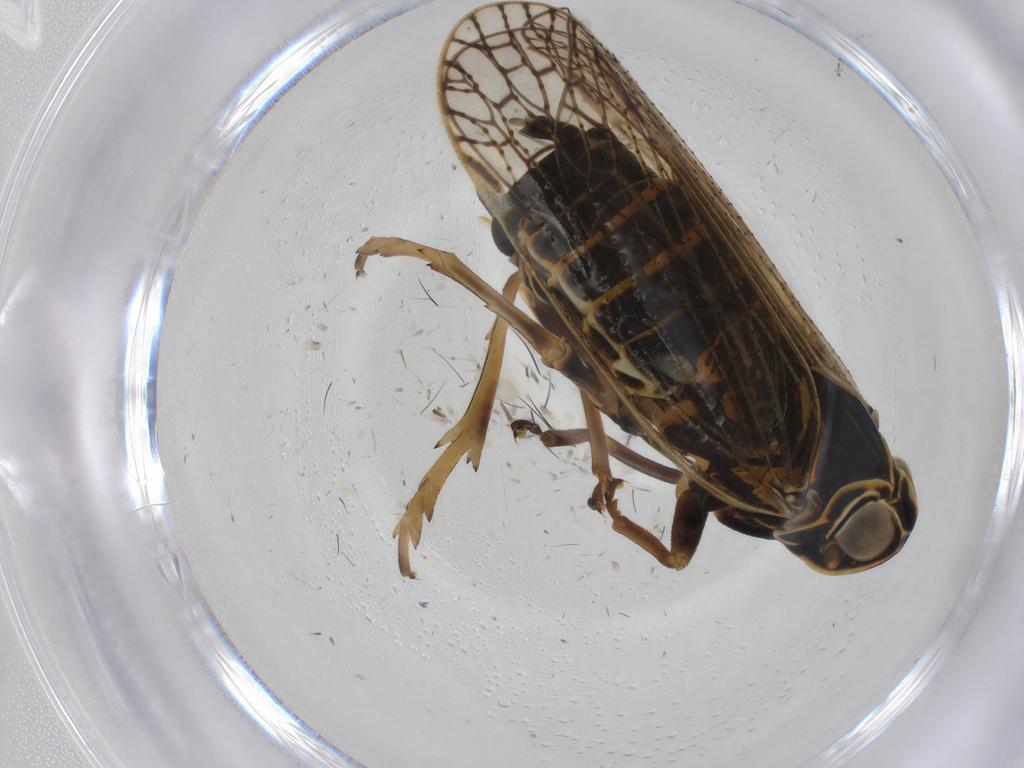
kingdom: Animalia
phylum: Arthropoda
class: Insecta
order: Hemiptera
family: Cixiidae
